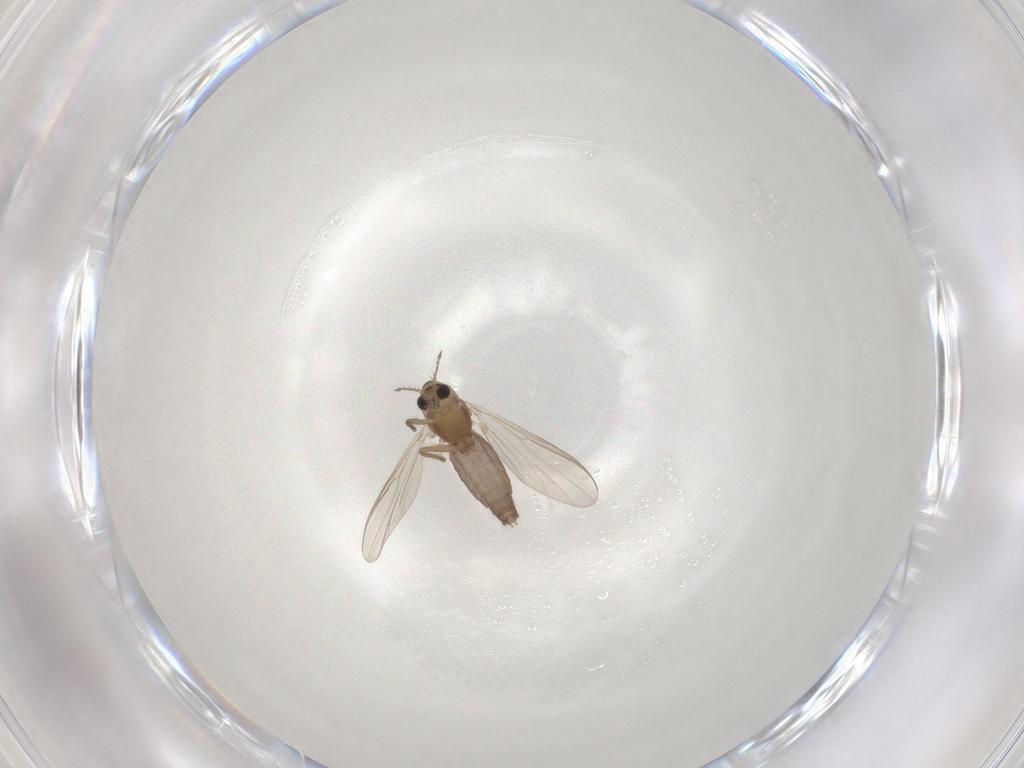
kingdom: Animalia
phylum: Arthropoda
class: Insecta
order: Diptera
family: Chironomidae
